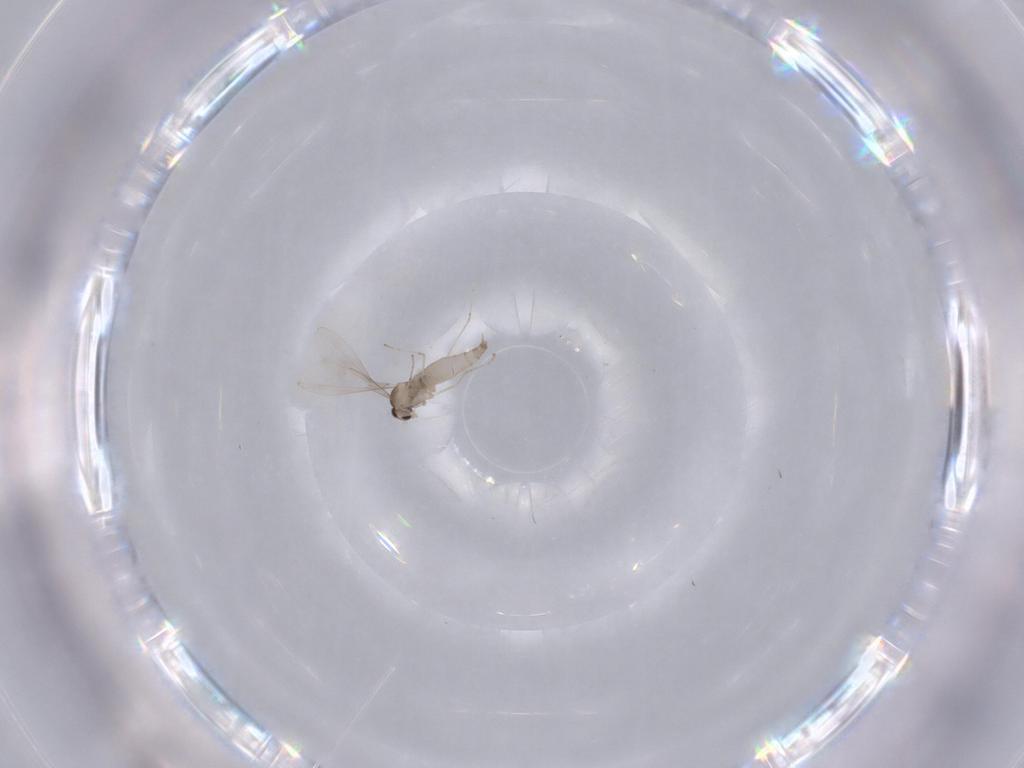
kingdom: Animalia
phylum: Arthropoda
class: Insecta
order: Diptera
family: Cecidomyiidae
